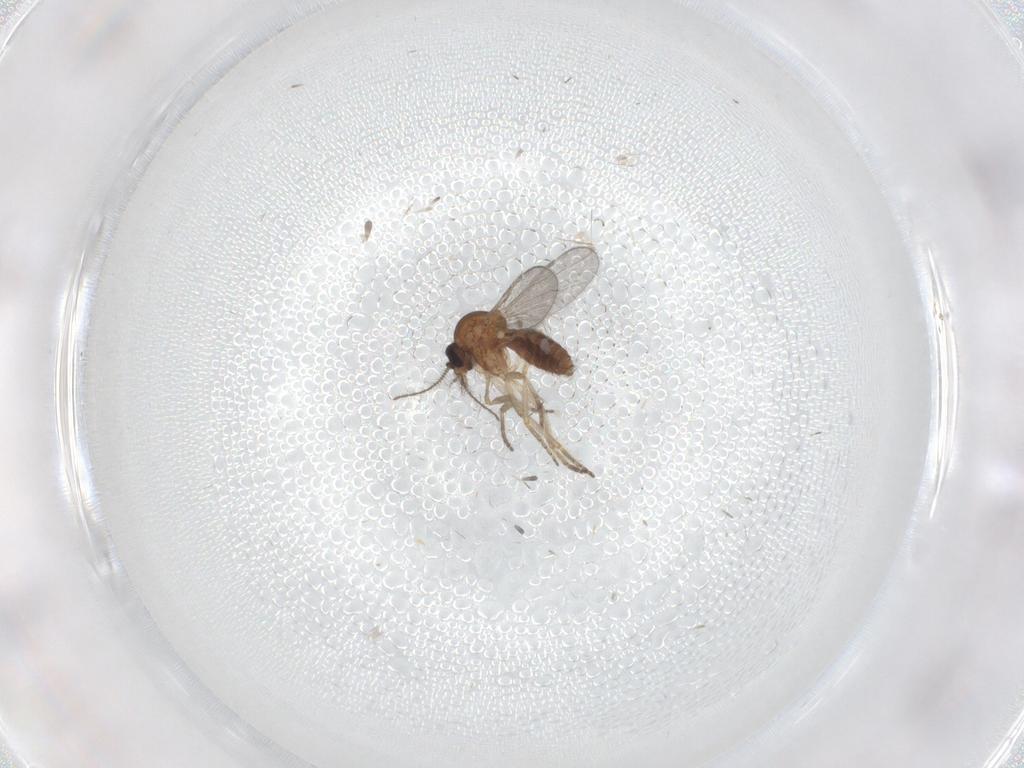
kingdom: Animalia
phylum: Arthropoda
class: Insecta
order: Diptera
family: Ceratopogonidae
